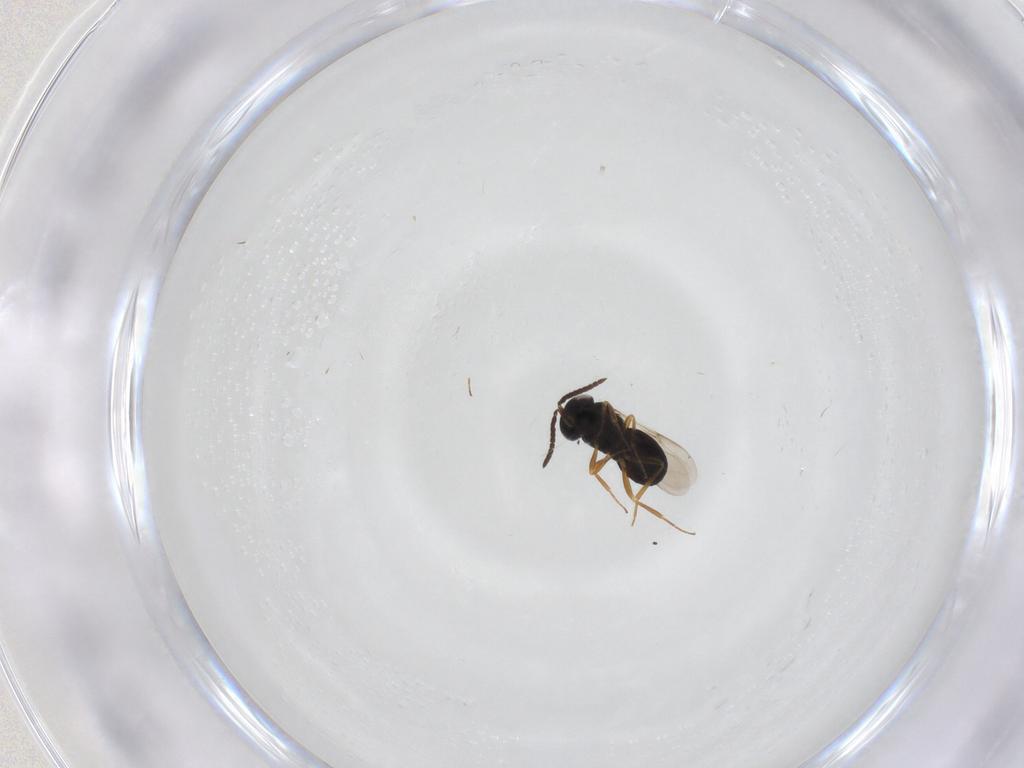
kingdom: Animalia
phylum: Arthropoda
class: Insecta
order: Hymenoptera
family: Scelionidae
